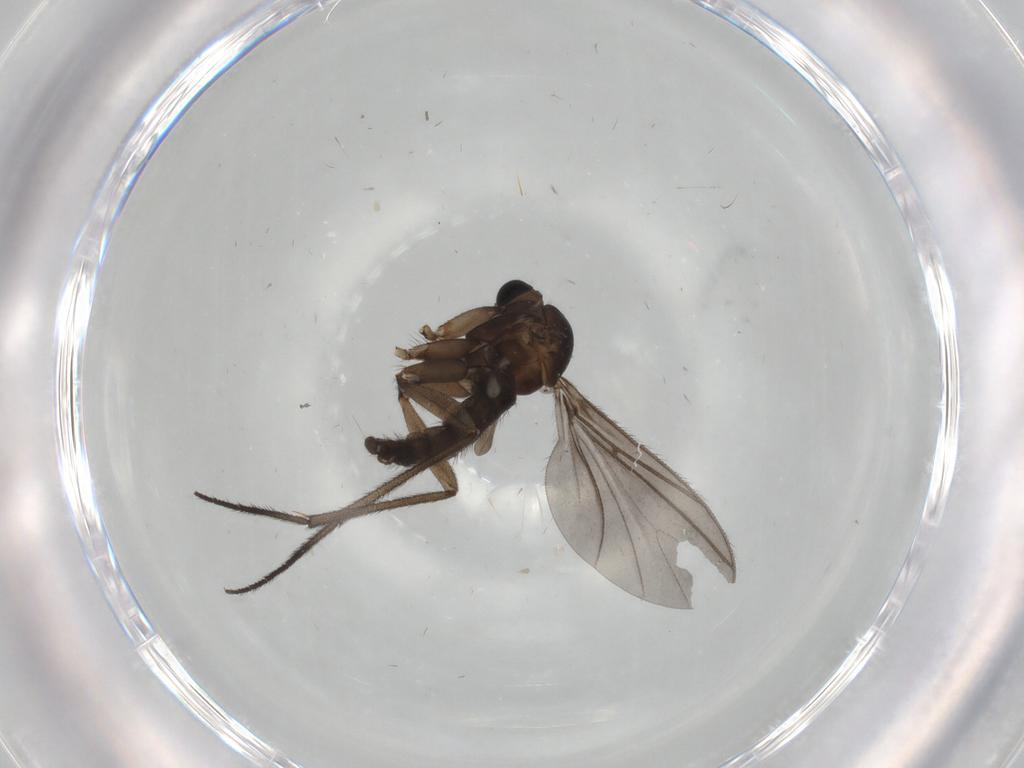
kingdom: Animalia
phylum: Arthropoda
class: Insecta
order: Diptera
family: Sciaridae
